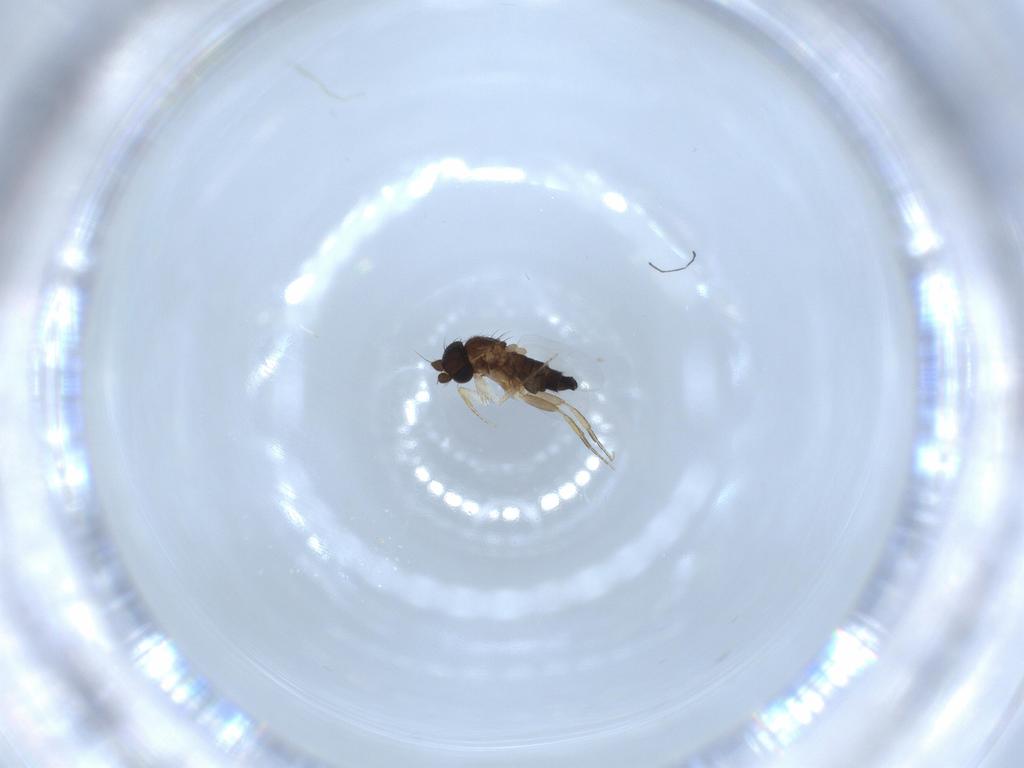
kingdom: Animalia
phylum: Arthropoda
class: Insecta
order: Diptera
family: Phoridae
